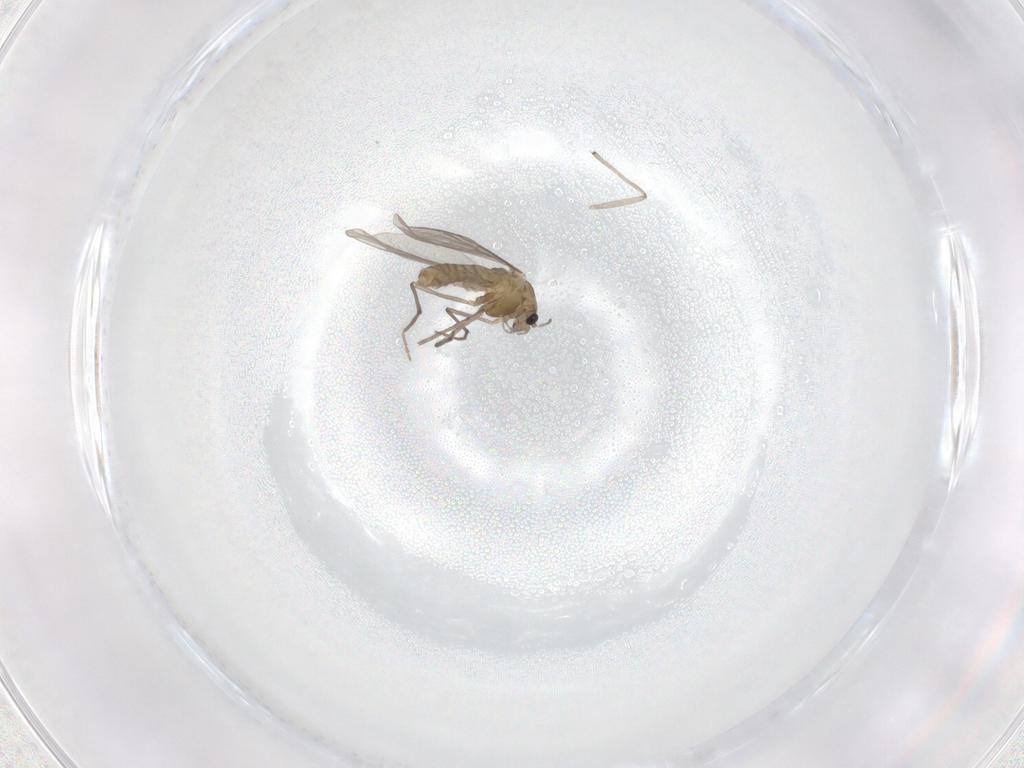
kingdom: Animalia
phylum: Arthropoda
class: Insecta
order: Diptera
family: Chironomidae
